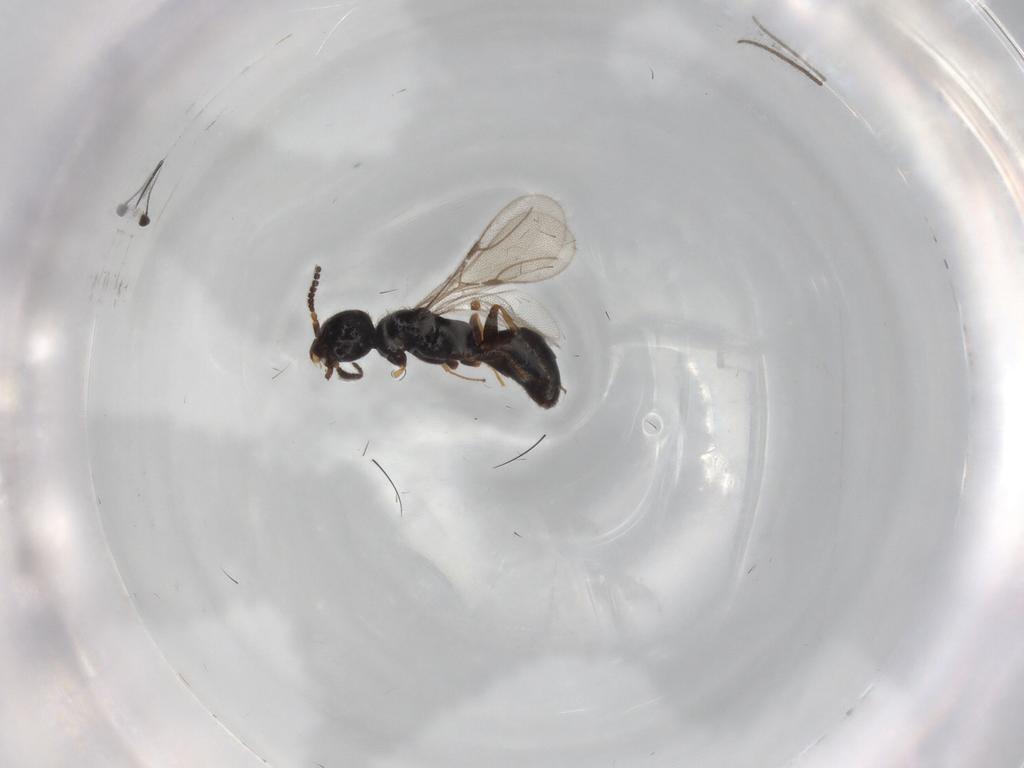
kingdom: Animalia
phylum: Arthropoda
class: Insecta
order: Hymenoptera
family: Bethylidae
